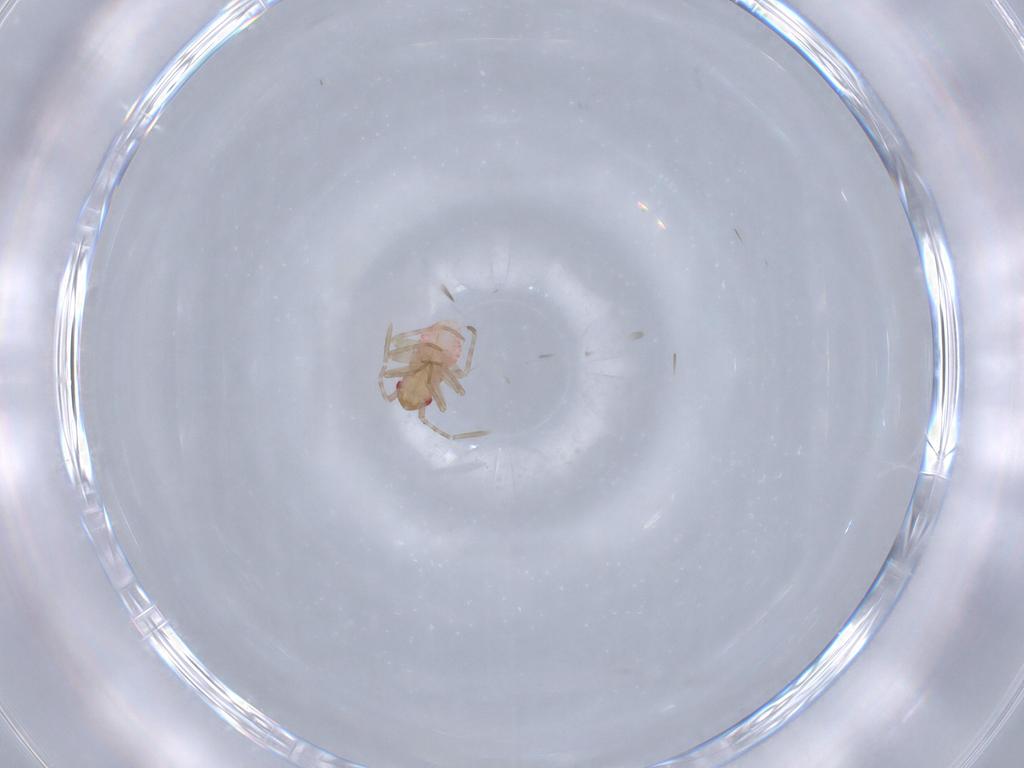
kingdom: Animalia
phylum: Arthropoda
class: Insecta
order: Hemiptera
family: Miridae
